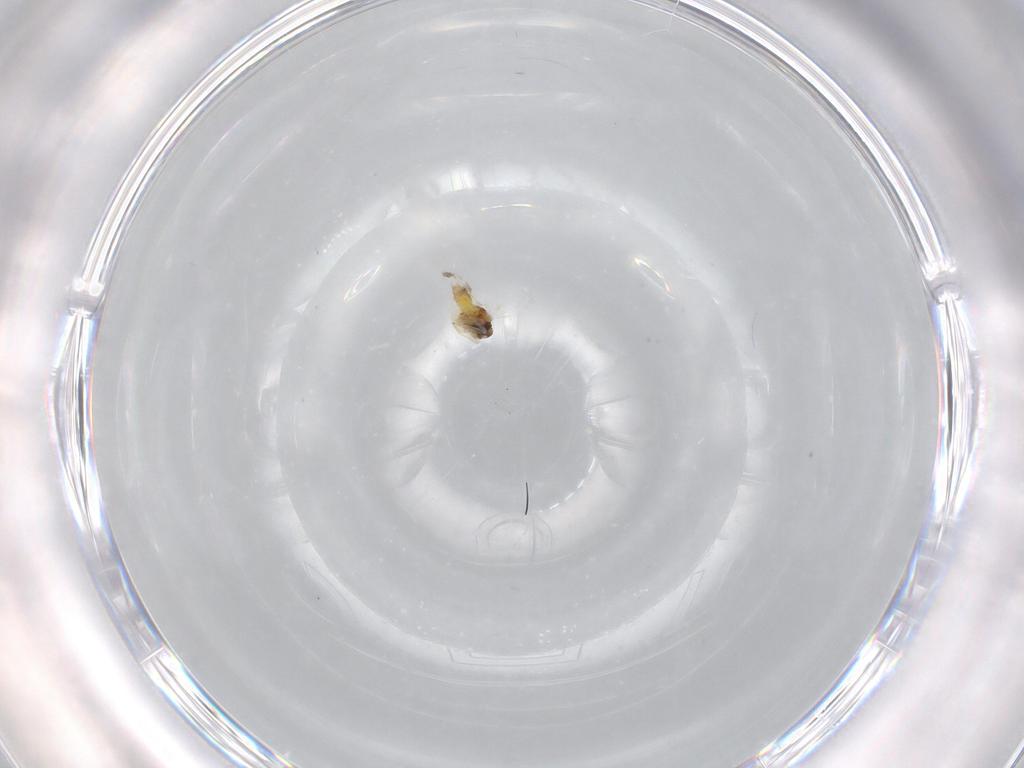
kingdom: Animalia
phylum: Arthropoda
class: Insecta
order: Hemiptera
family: Aleyrodidae
